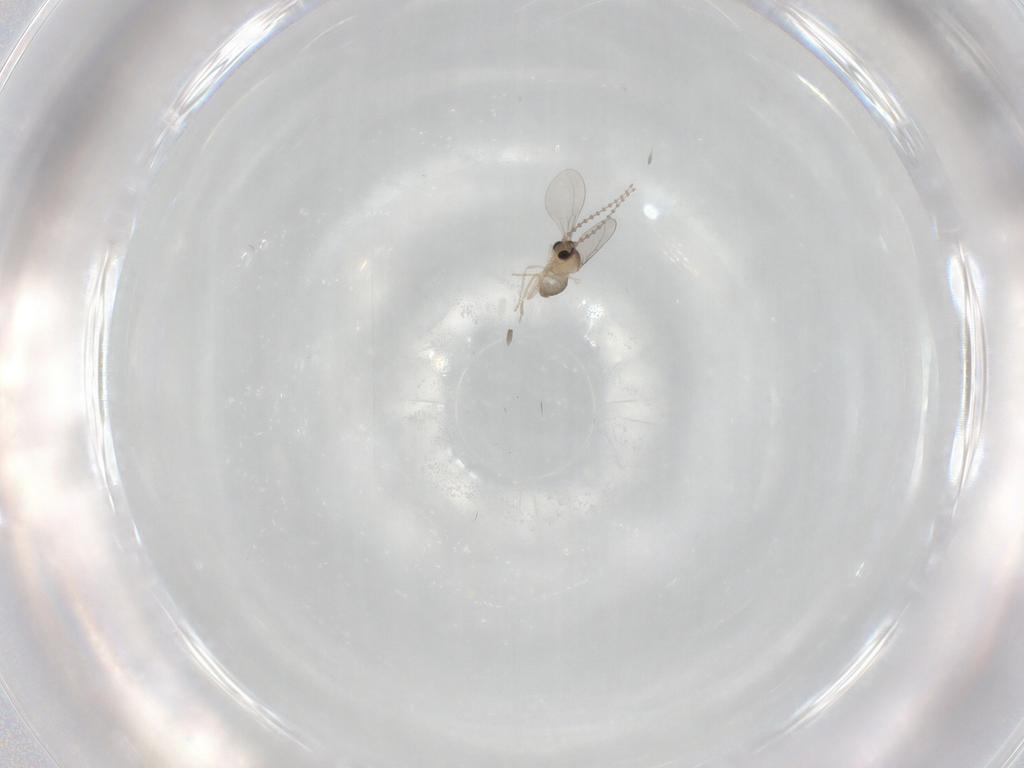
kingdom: Animalia
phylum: Arthropoda
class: Insecta
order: Diptera
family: Cecidomyiidae
